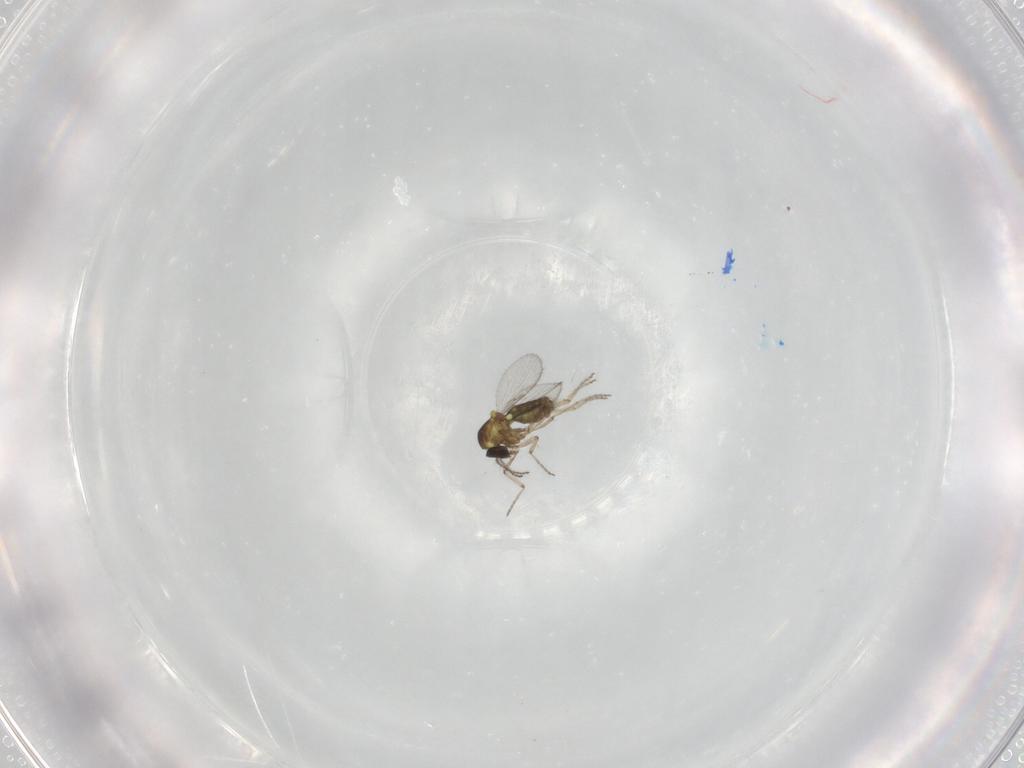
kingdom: Animalia
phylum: Arthropoda
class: Insecta
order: Diptera
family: Ceratopogonidae
